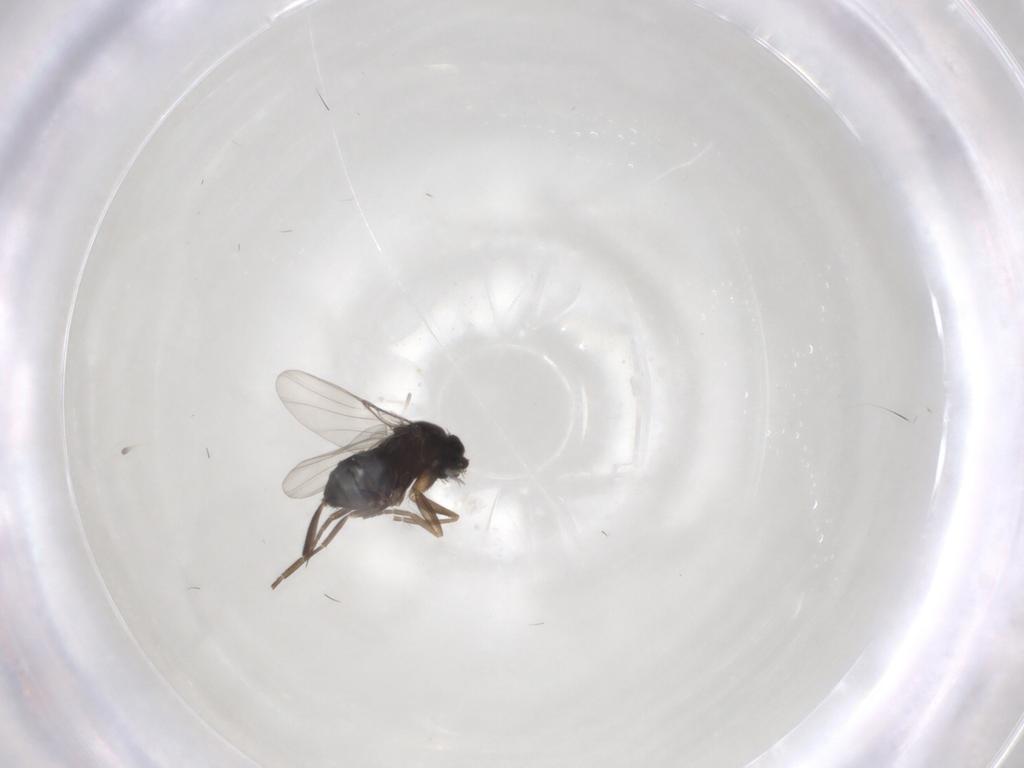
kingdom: Animalia
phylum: Arthropoda
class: Insecta
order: Diptera
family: Phoridae
